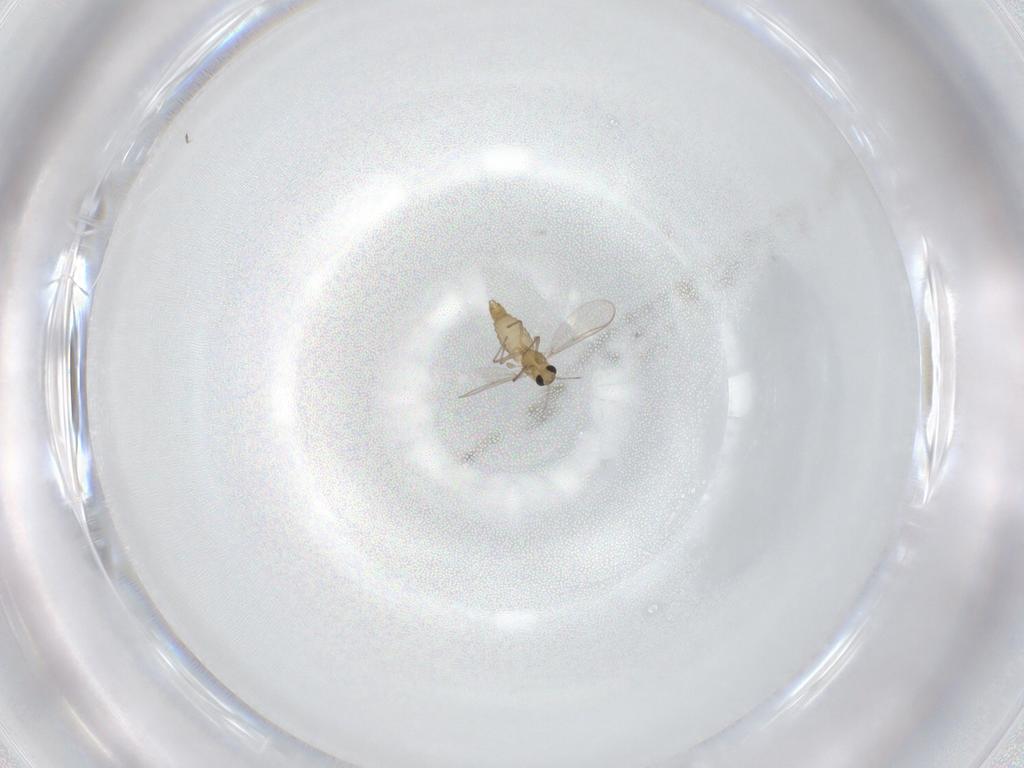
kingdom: Animalia
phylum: Arthropoda
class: Insecta
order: Diptera
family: Chironomidae
